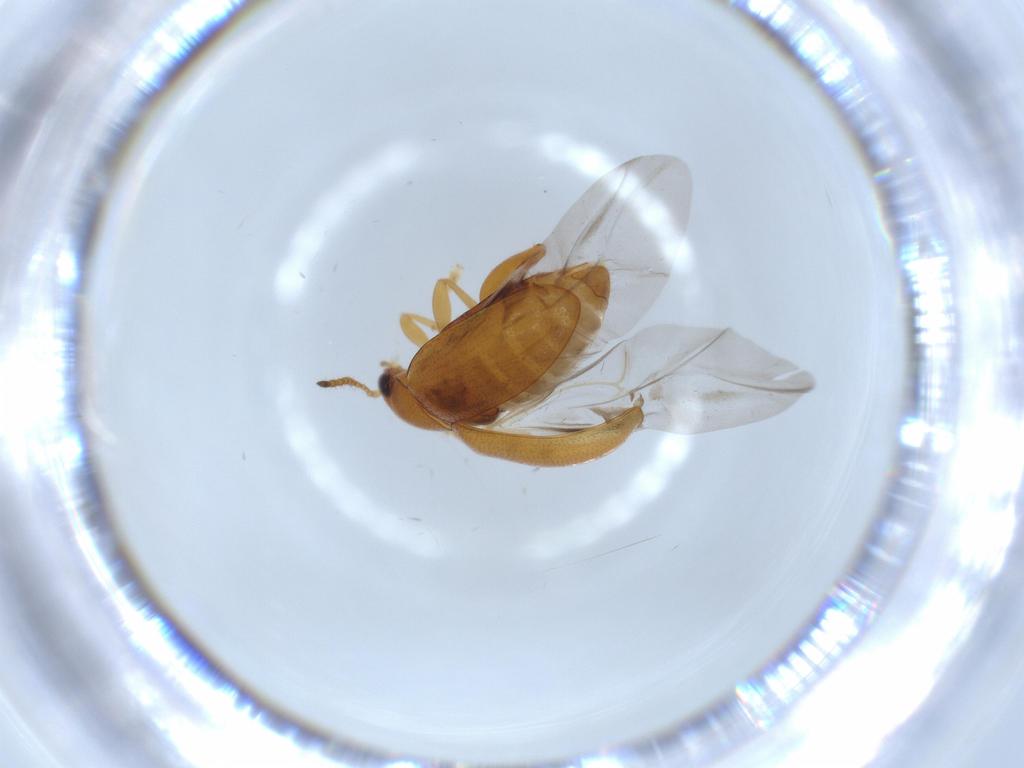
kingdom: Animalia
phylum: Arthropoda
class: Insecta
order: Coleoptera
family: Chrysomelidae
